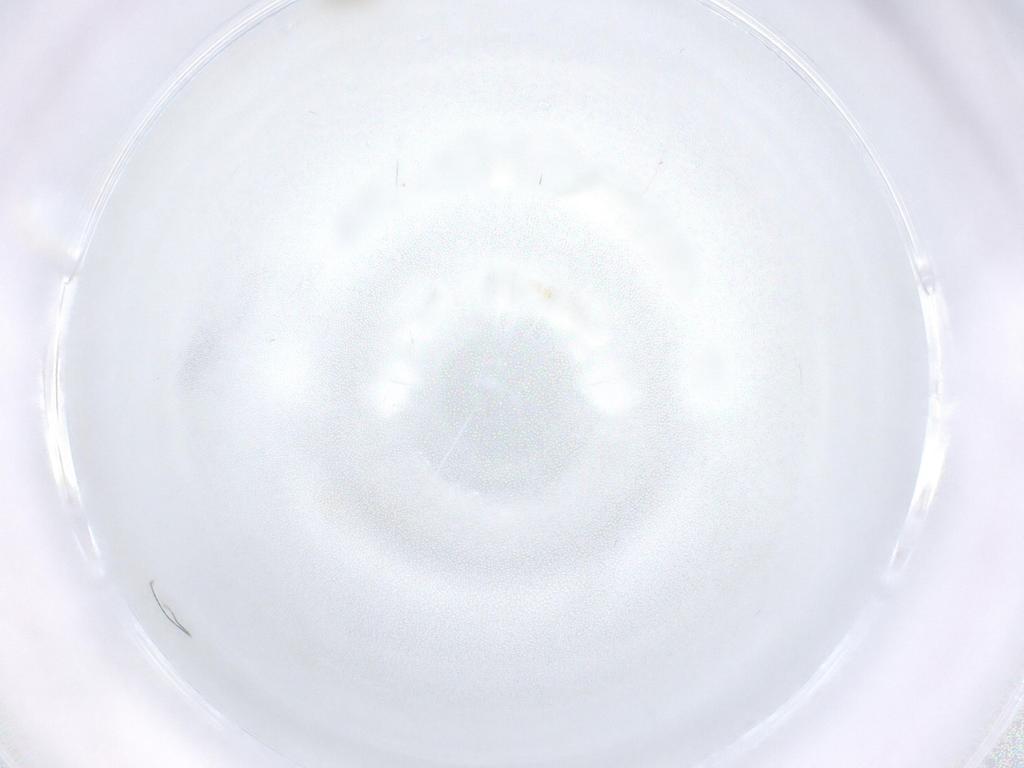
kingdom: Animalia
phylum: Arthropoda
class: Insecta
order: Diptera
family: Cecidomyiidae
